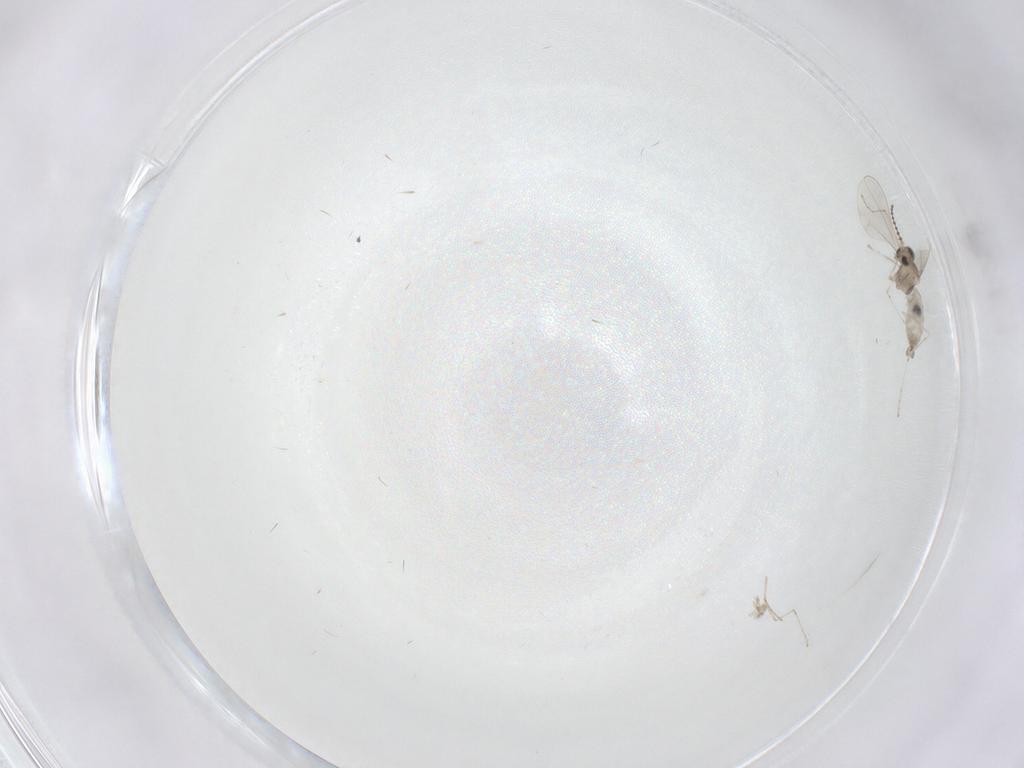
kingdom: Animalia
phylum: Arthropoda
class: Insecta
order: Diptera
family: Cecidomyiidae
